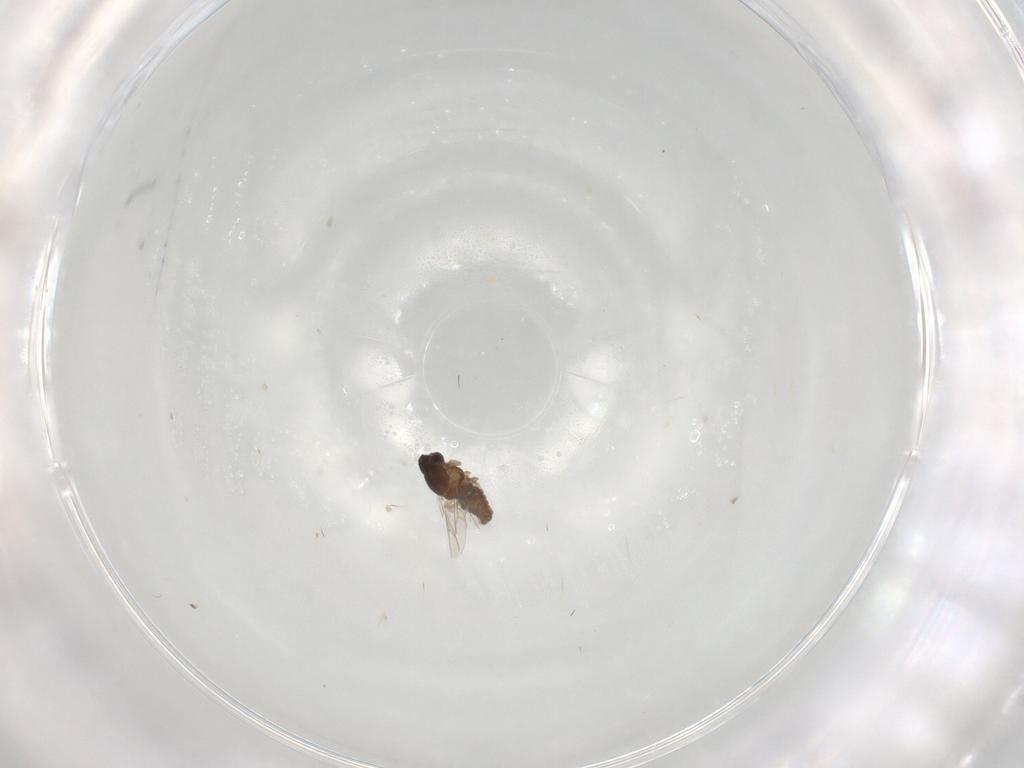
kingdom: Animalia
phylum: Arthropoda
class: Insecta
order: Diptera
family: Cecidomyiidae
